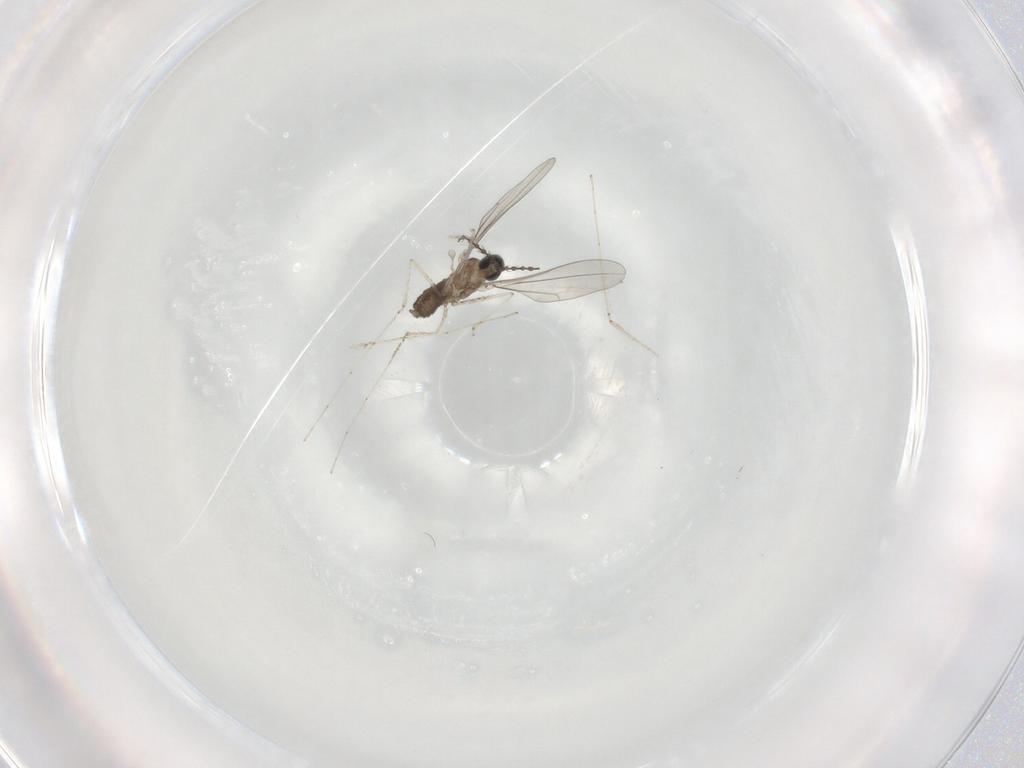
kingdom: Animalia
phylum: Arthropoda
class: Insecta
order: Diptera
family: Cecidomyiidae
